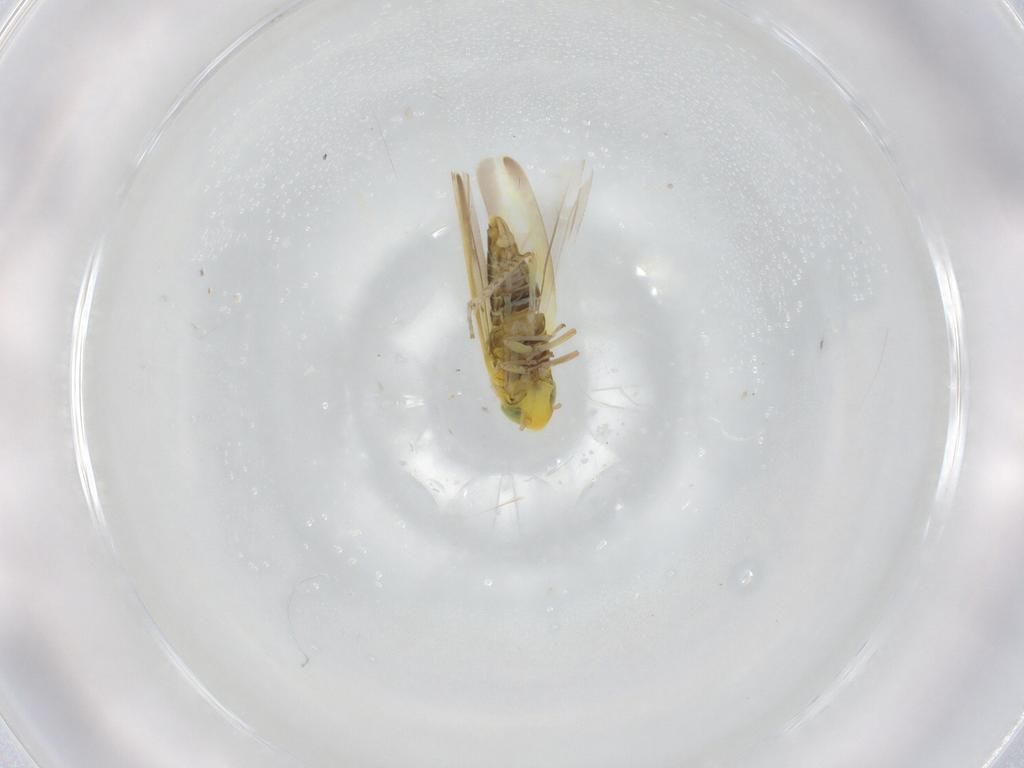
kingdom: Animalia
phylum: Arthropoda
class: Insecta
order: Hemiptera
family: Cicadellidae
